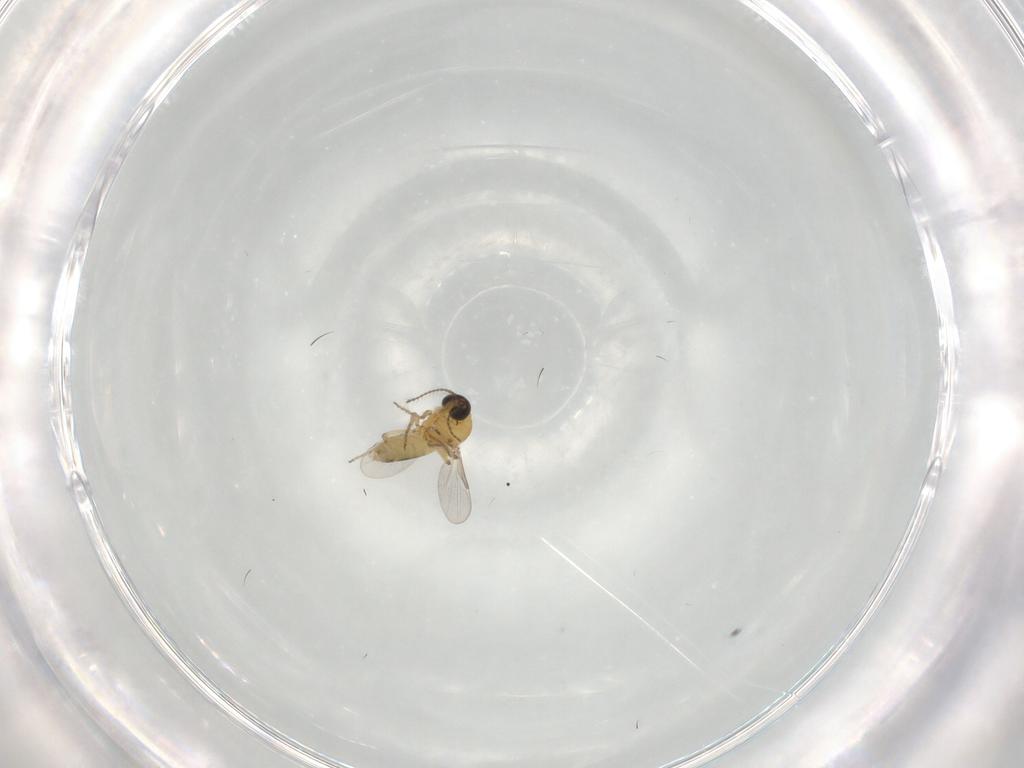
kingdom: Animalia
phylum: Arthropoda
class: Insecta
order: Diptera
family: Ceratopogonidae
